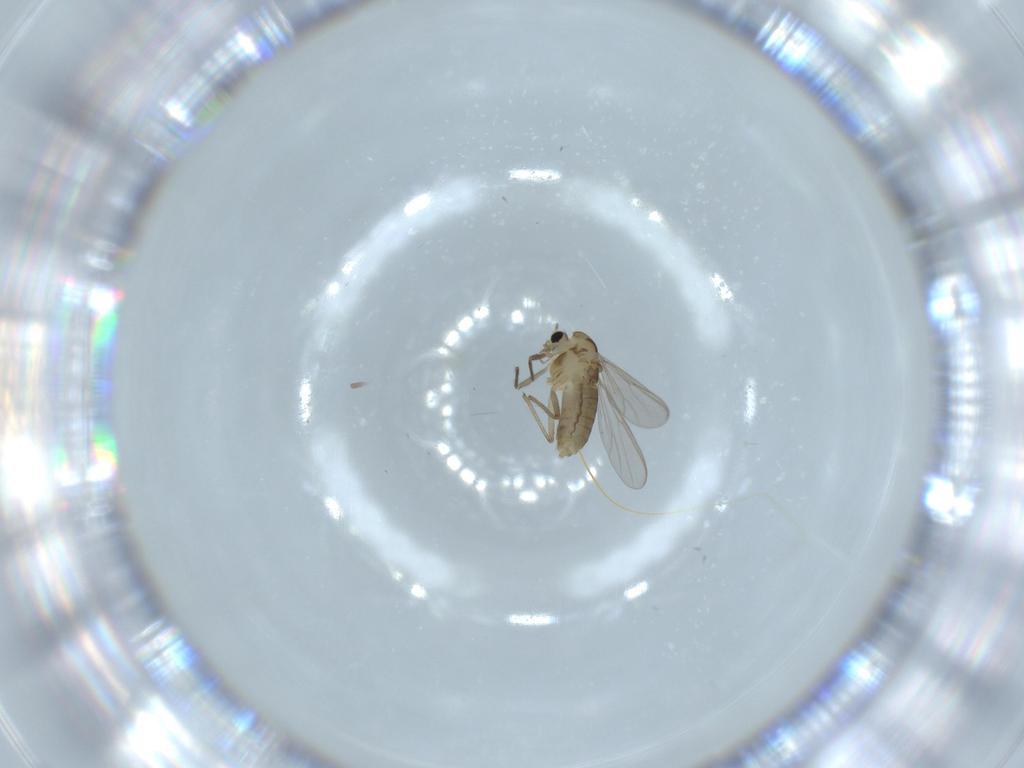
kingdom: Animalia
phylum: Arthropoda
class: Insecta
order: Diptera
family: Chironomidae
